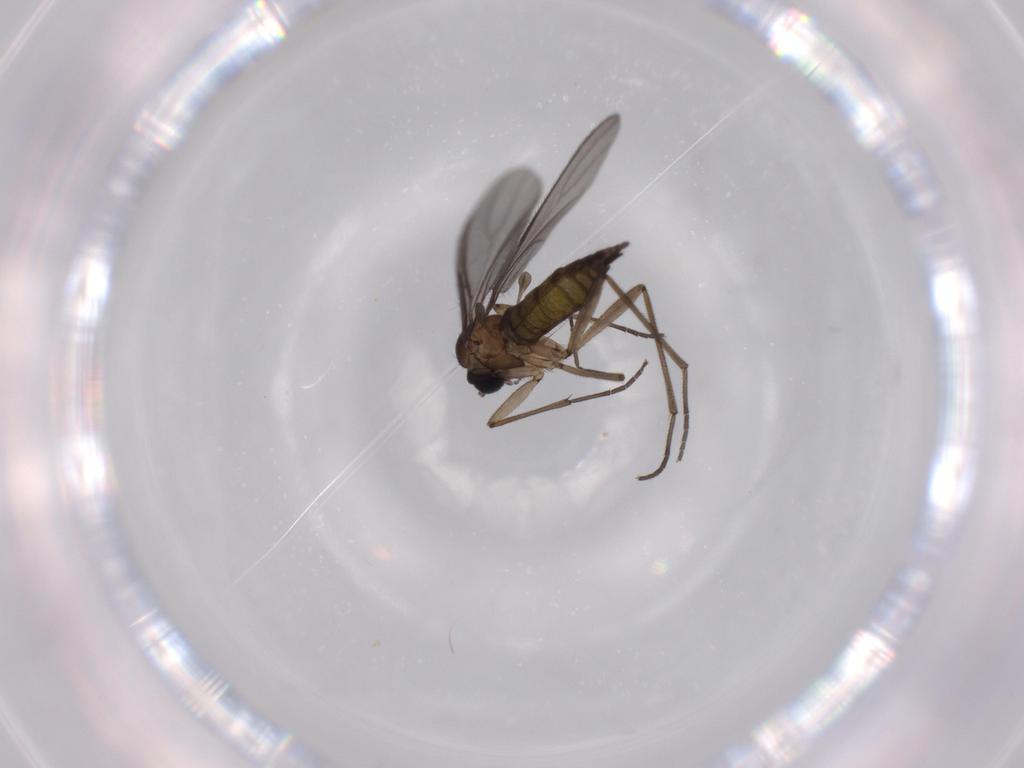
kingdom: Animalia
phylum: Arthropoda
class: Insecta
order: Diptera
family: Sciaridae
